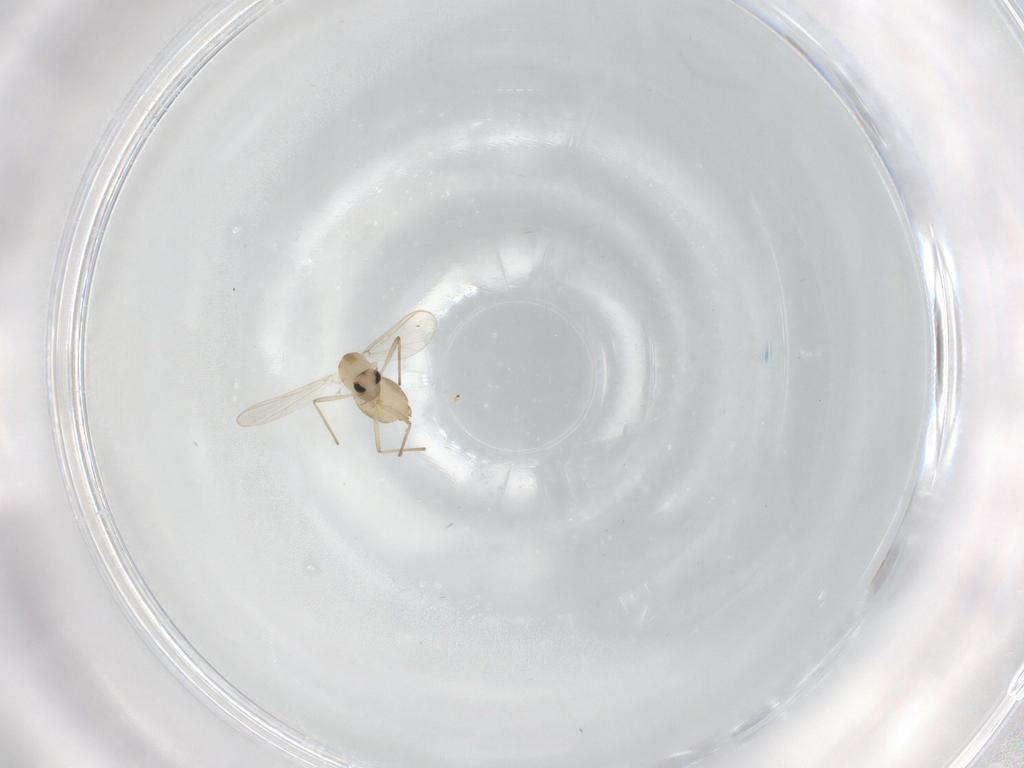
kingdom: Animalia
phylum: Arthropoda
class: Insecta
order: Diptera
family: Chironomidae
